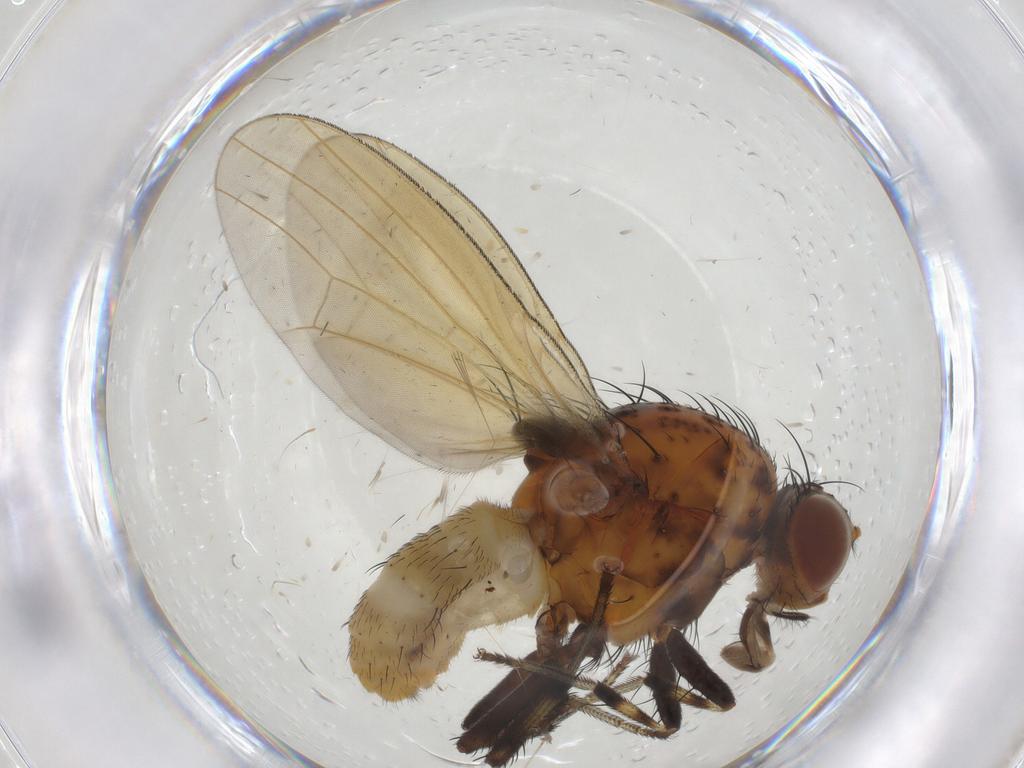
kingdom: Animalia
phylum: Arthropoda
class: Insecta
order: Diptera
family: Lauxaniidae
